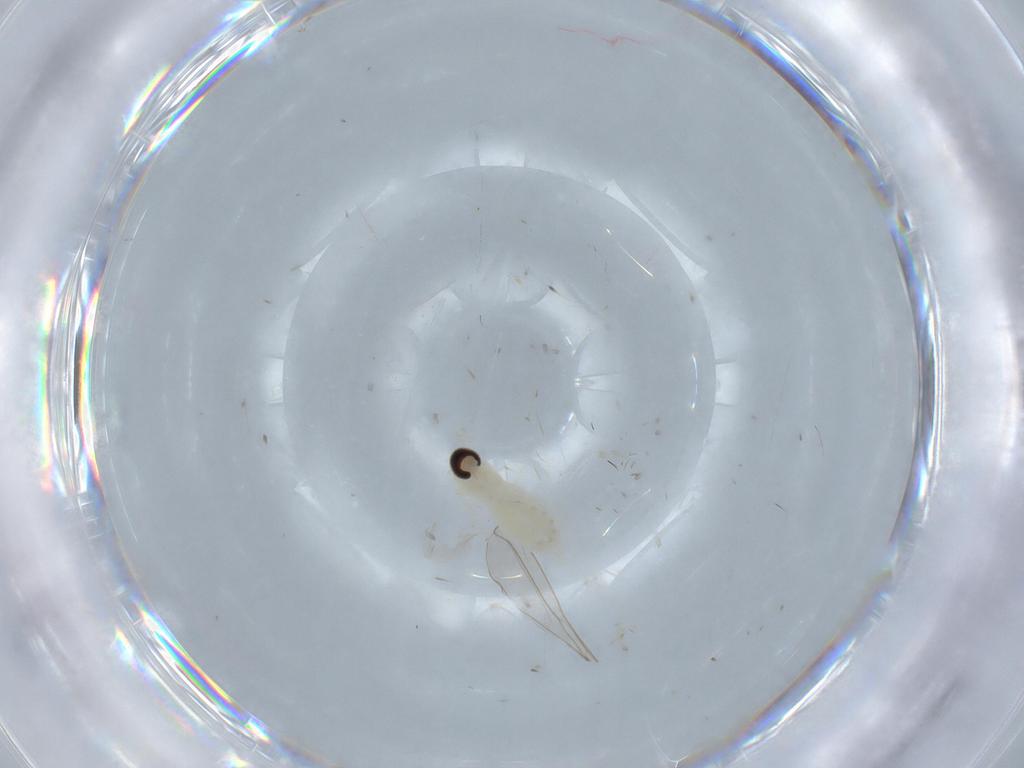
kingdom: Animalia
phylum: Arthropoda
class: Insecta
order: Diptera
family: Cecidomyiidae
